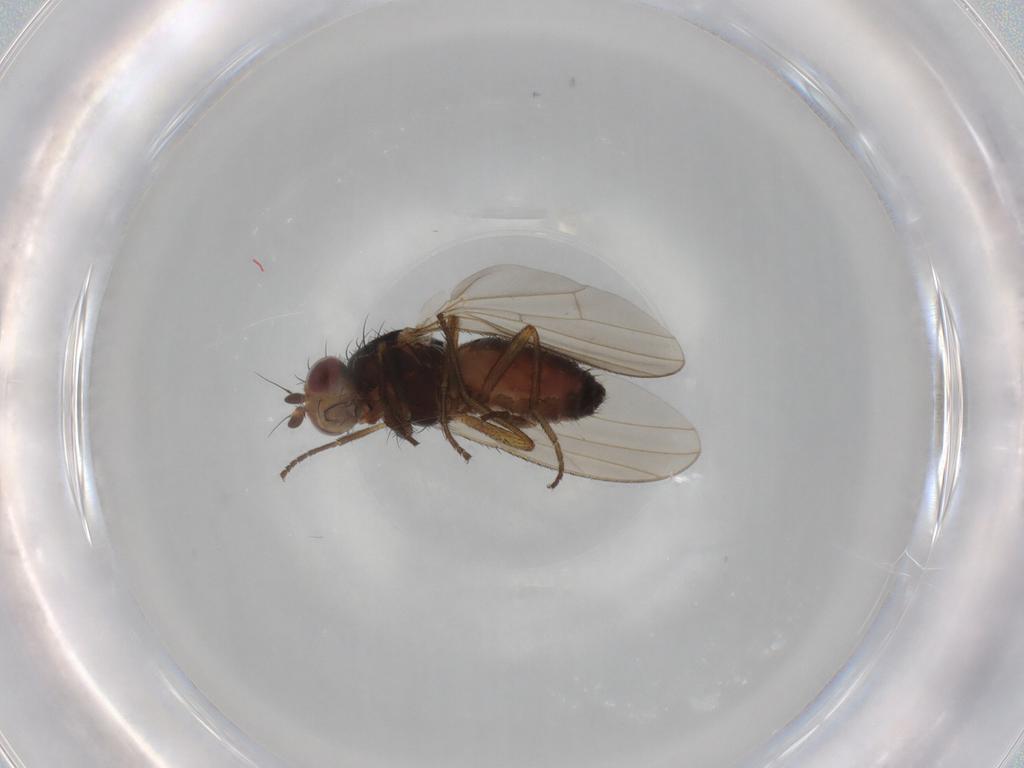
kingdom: Animalia
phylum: Arthropoda
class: Insecta
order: Diptera
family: Heleomyzidae
